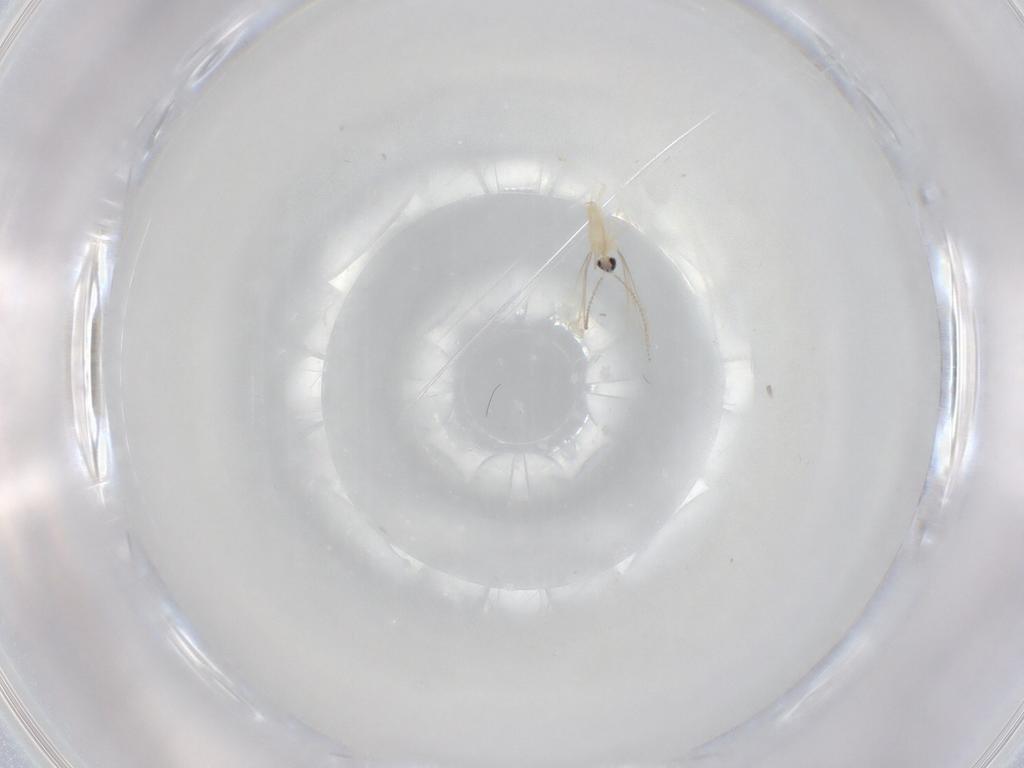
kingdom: Animalia
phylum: Arthropoda
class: Insecta
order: Diptera
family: Cecidomyiidae
